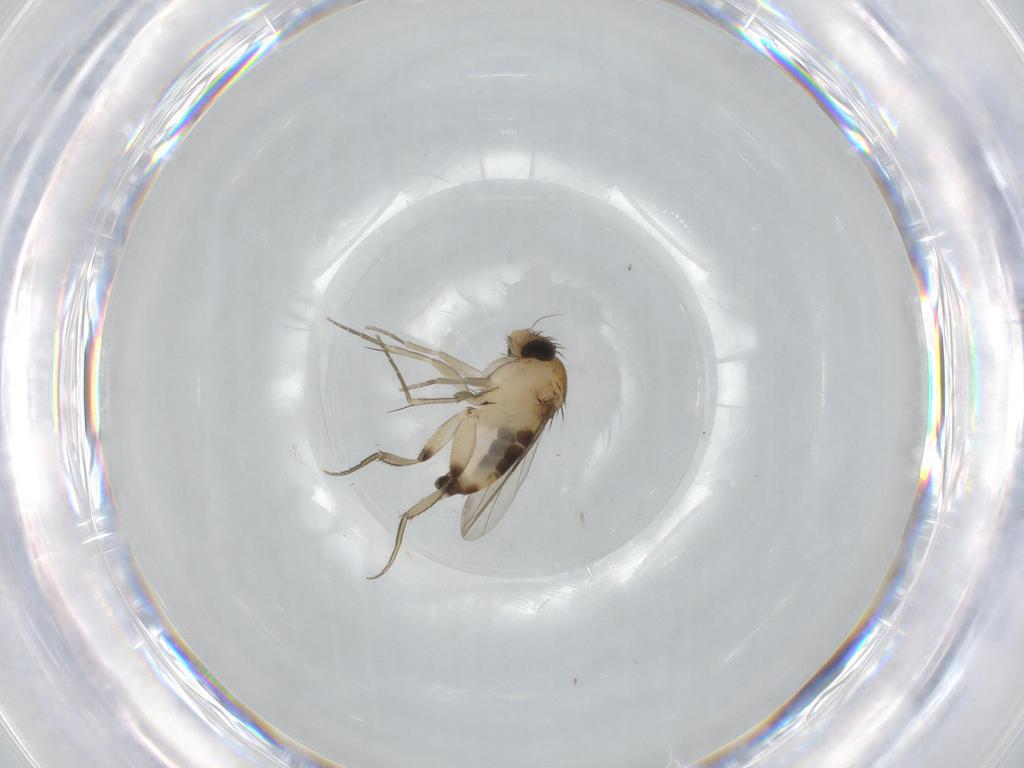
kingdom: Animalia
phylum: Arthropoda
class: Insecta
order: Diptera
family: Phoridae
